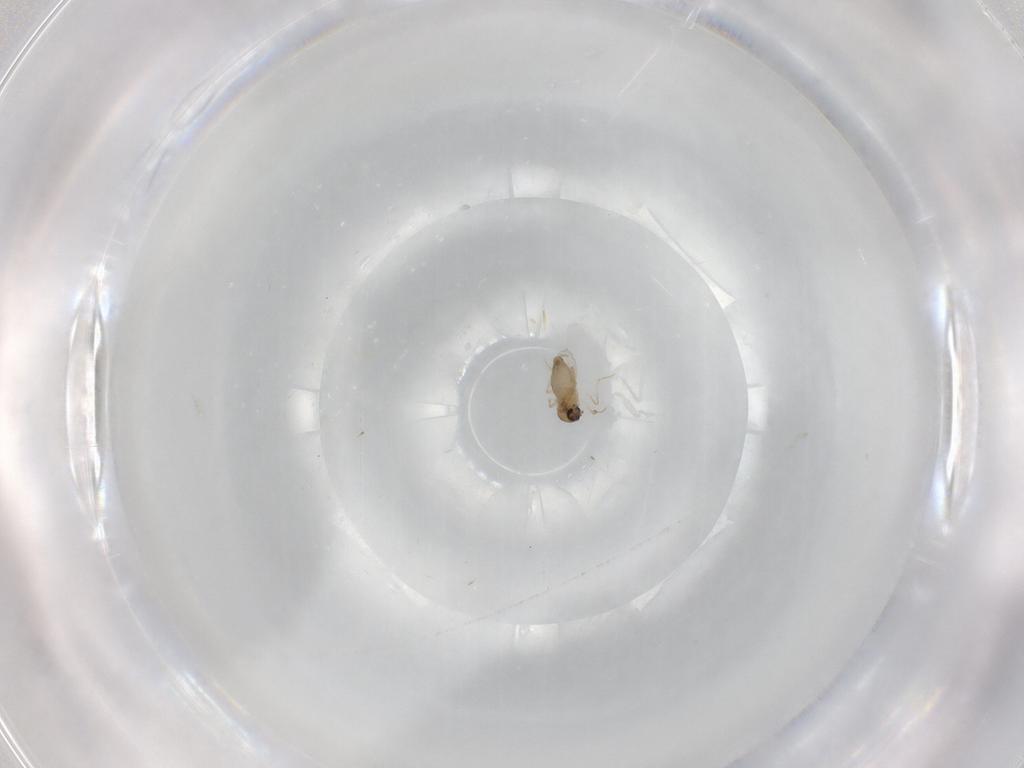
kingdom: Animalia
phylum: Arthropoda
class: Insecta
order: Diptera
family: Ceratopogonidae
